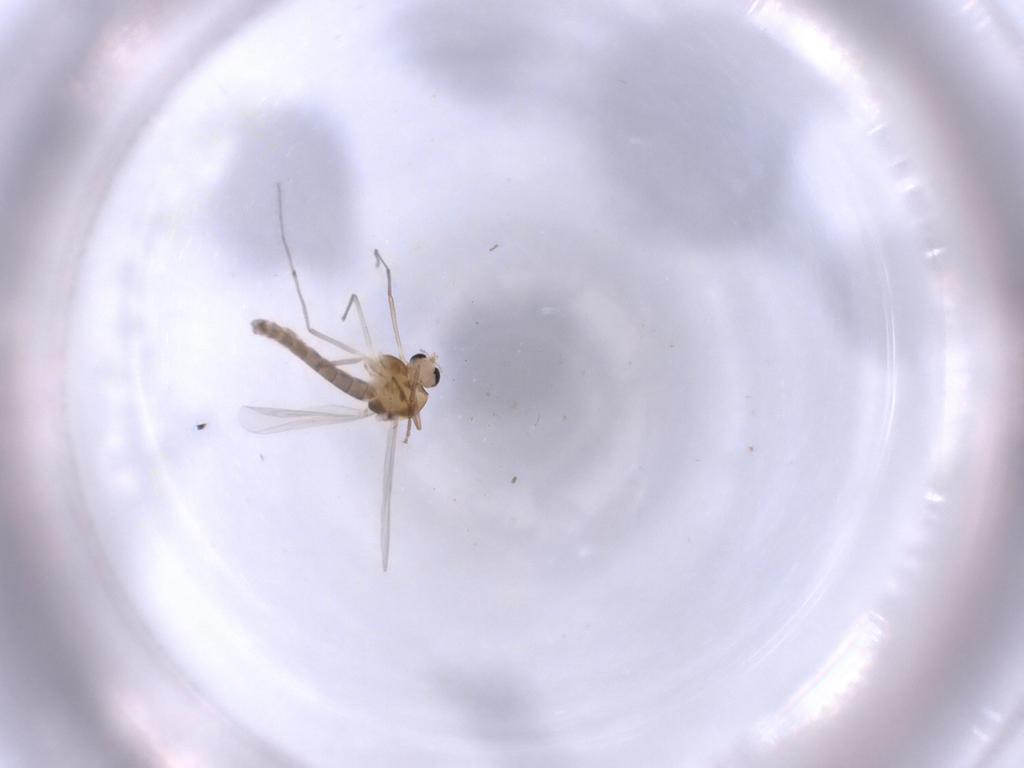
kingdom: Animalia
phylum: Arthropoda
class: Insecta
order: Diptera
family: Chironomidae
